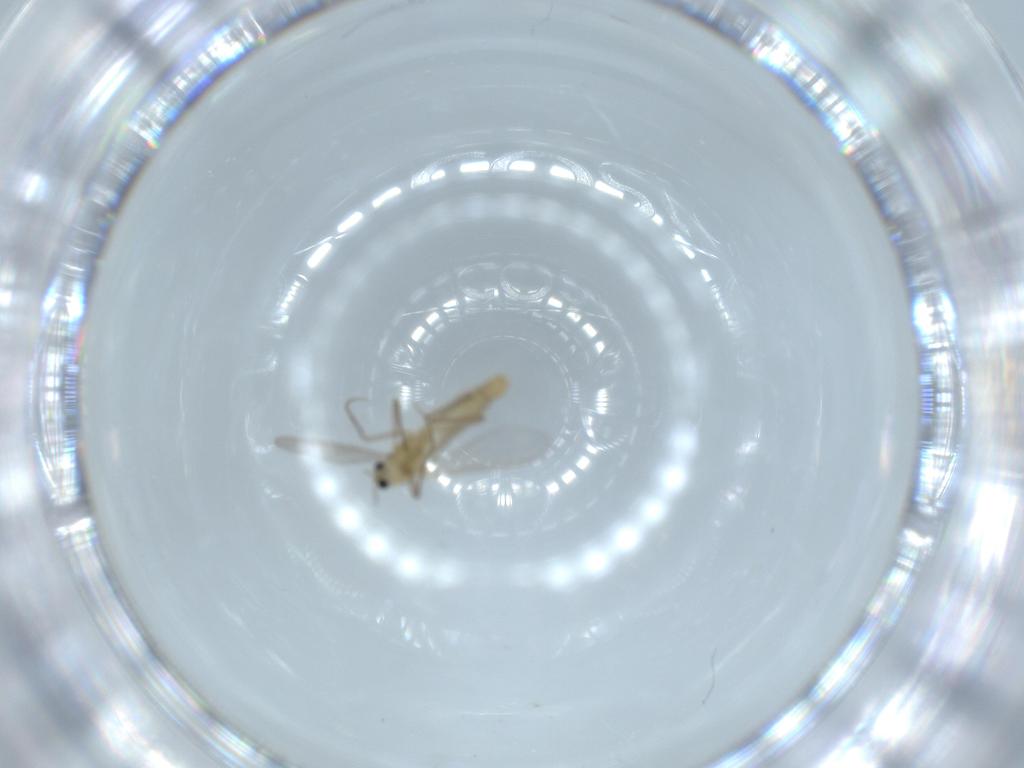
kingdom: Animalia
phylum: Arthropoda
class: Insecta
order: Diptera
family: Chironomidae
